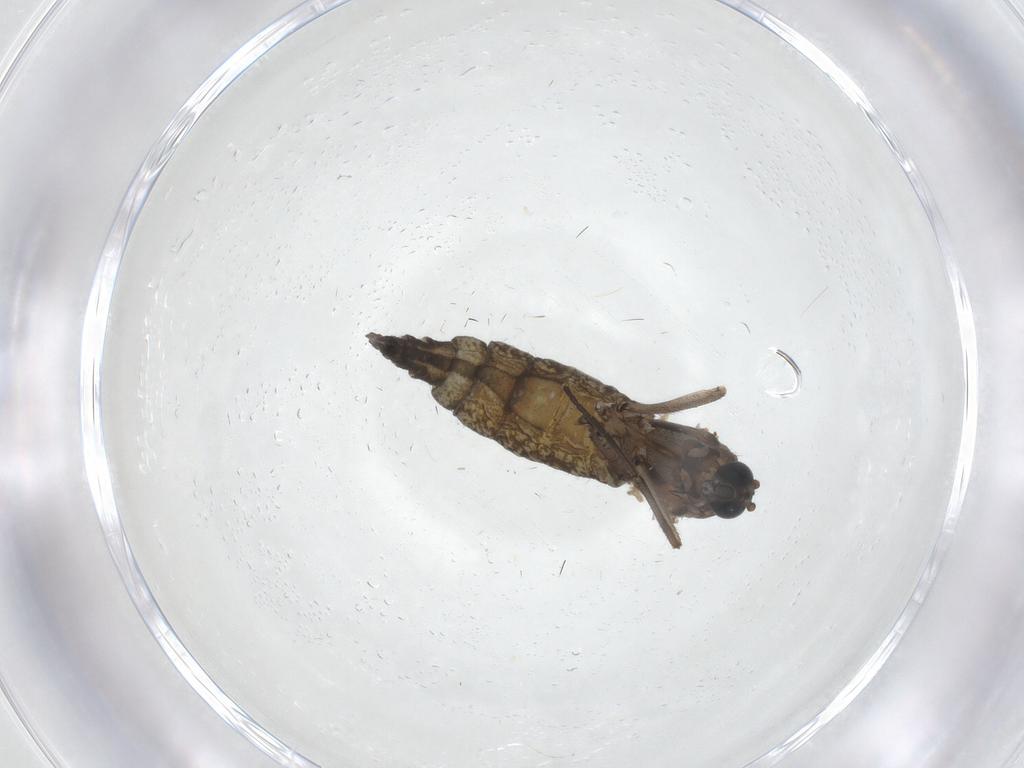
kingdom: Animalia
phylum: Arthropoda
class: Insecta
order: Diptera
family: Sciaridae
